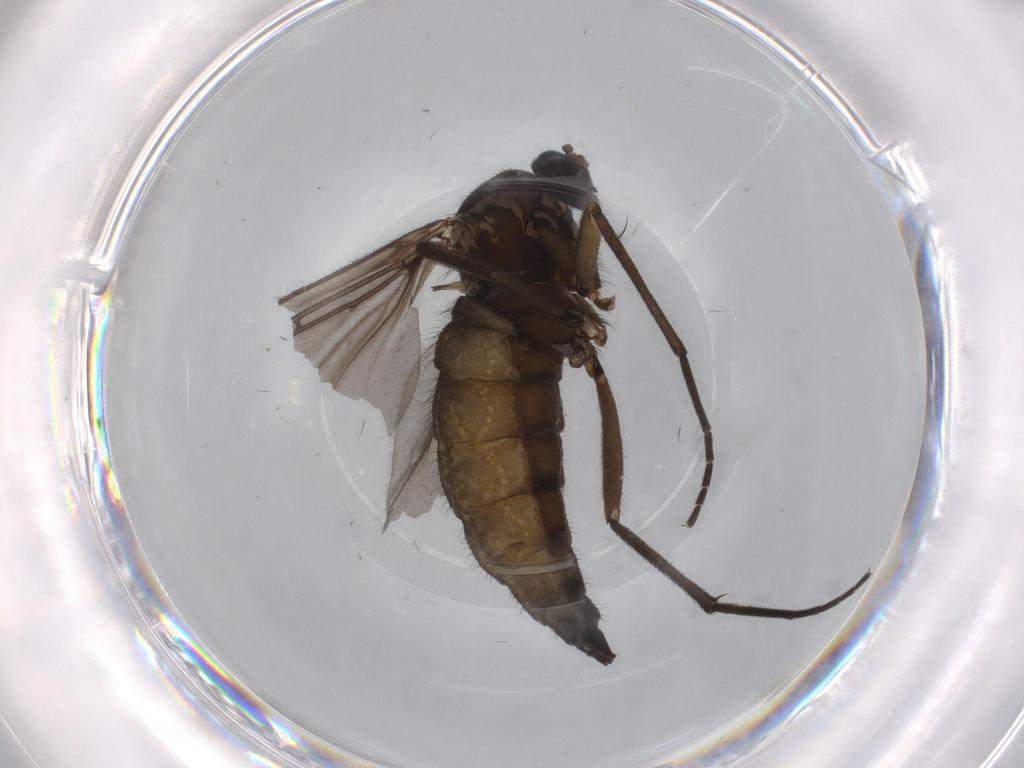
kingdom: Animalia
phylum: Arthropoda
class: Insecta
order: Diptera
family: Sciaridae
